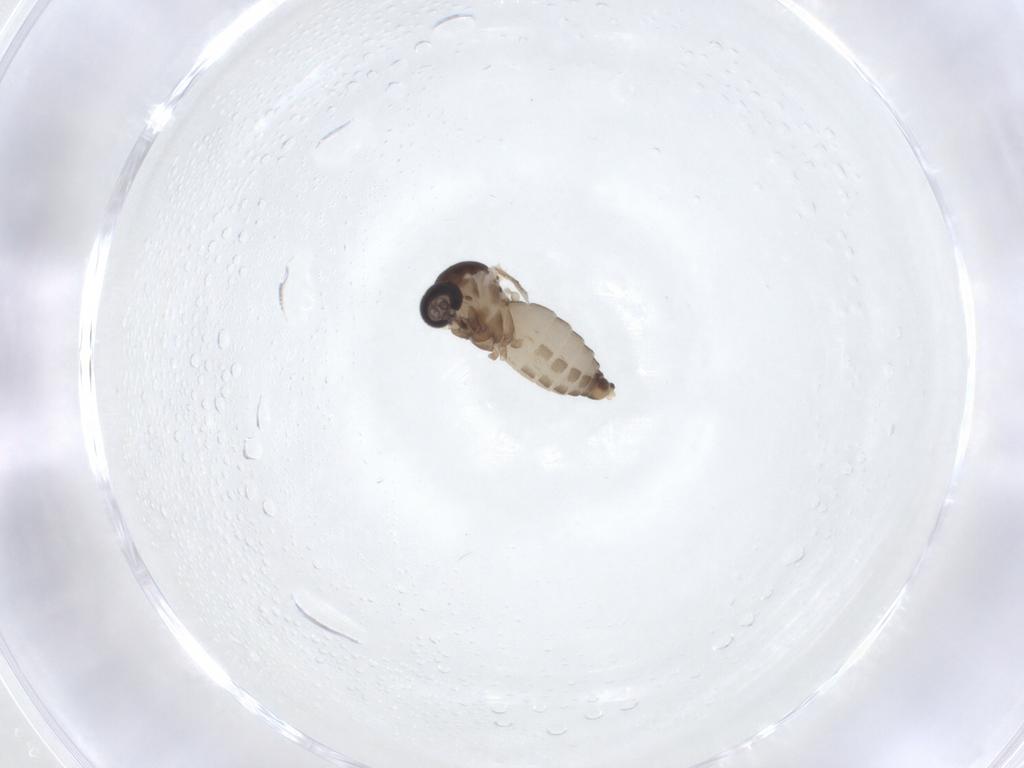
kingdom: Animalia
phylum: Arthropoda
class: Insecta
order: Diptera
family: Ceratopogonidae
